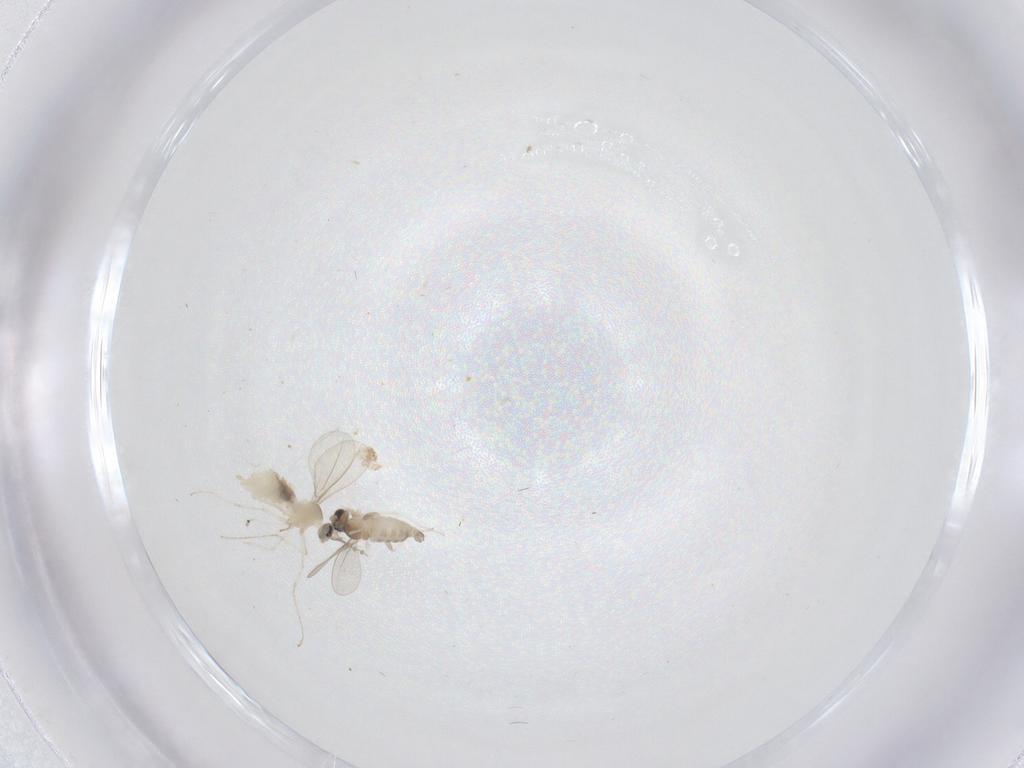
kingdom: Animalia
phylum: Arthropoda
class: Insecta
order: Diptera
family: Cecidomyiidae
